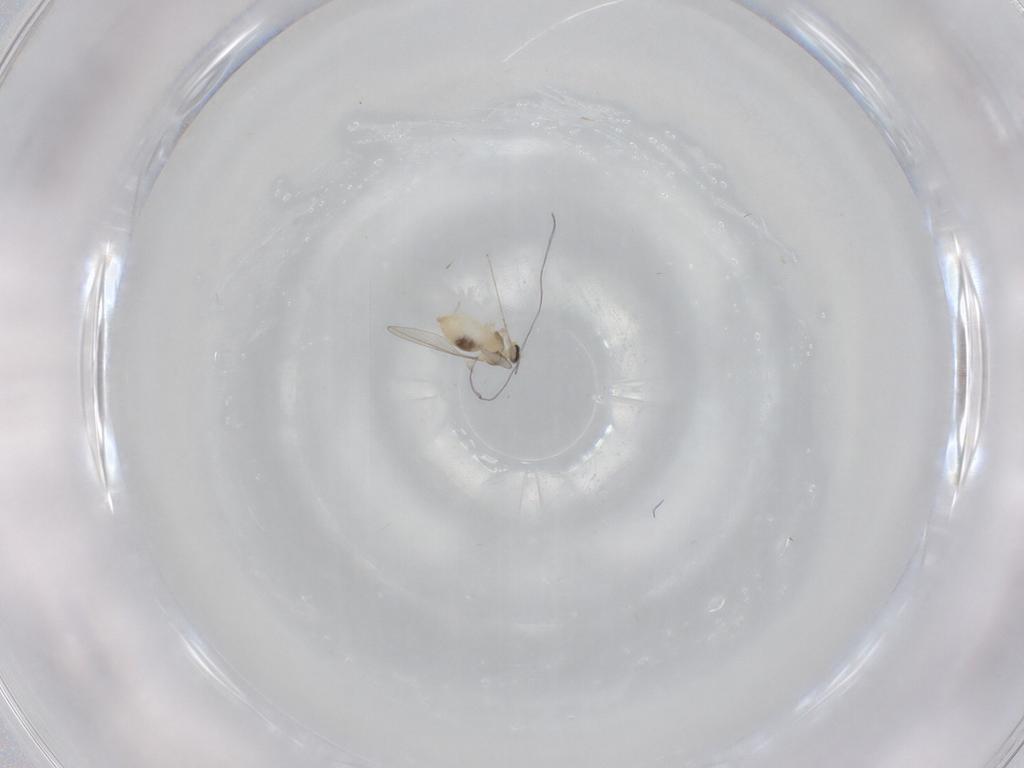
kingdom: Animalia
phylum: Arthropoda
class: Insecta
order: Diptera
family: Cecidomyiidae
